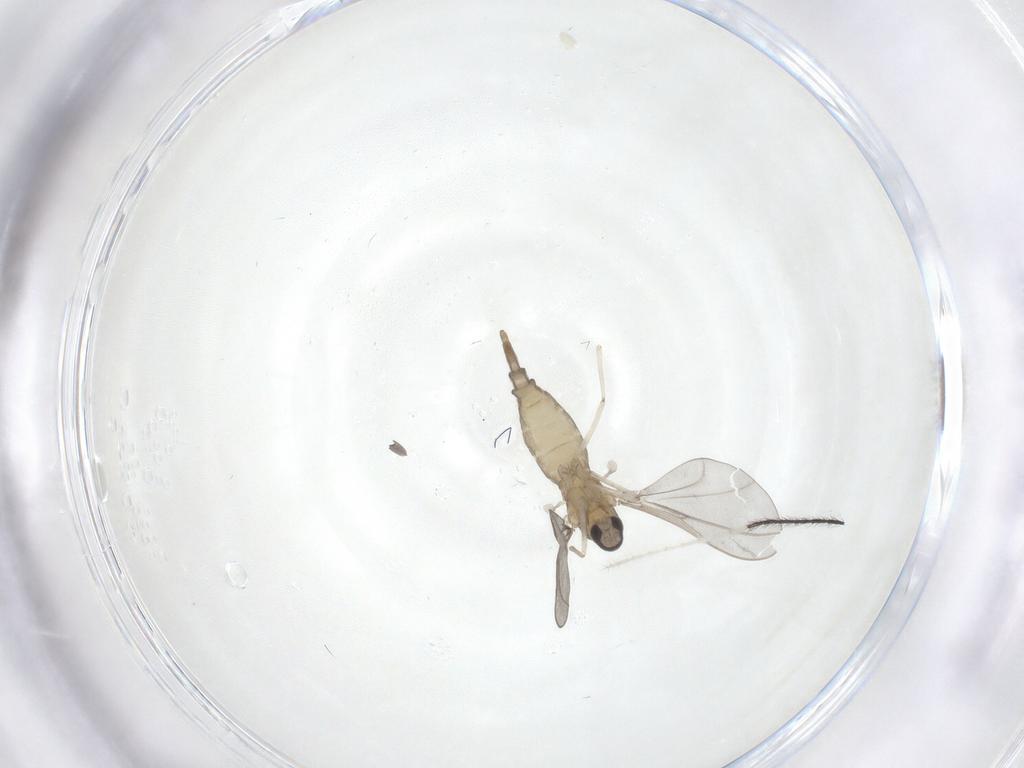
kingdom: Animalia
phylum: Arthropoda
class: Insecta
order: Diptera
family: Cecidomyiidae
